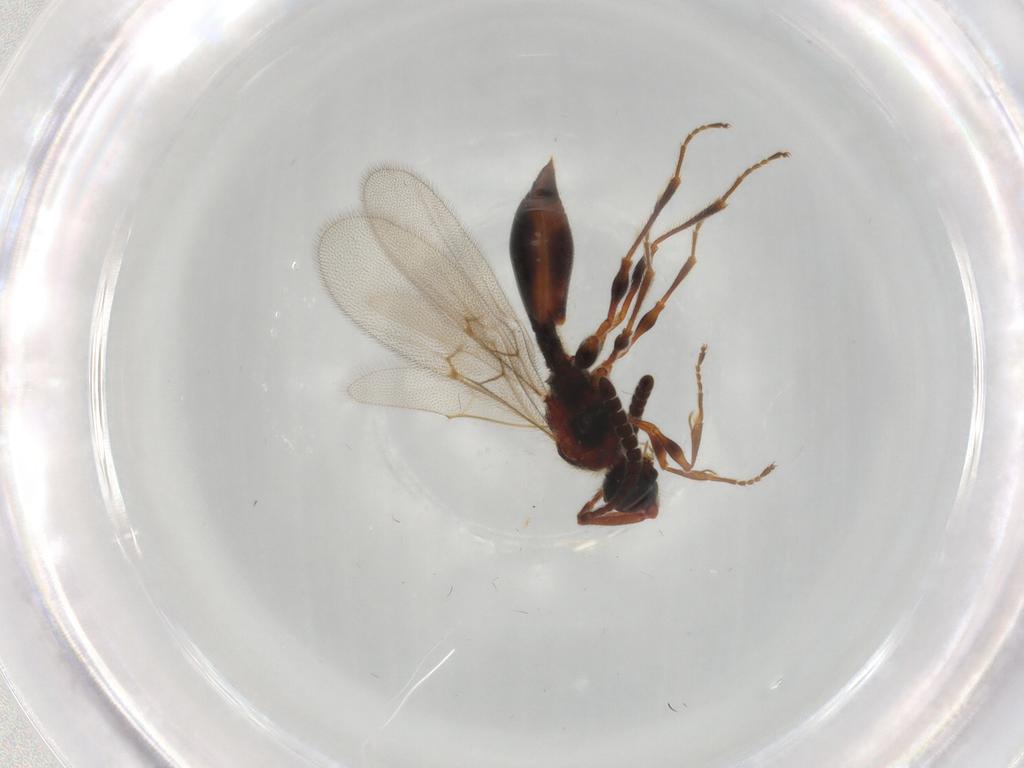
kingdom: Animalia
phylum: Arthropoda
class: Insecta
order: Hymenoptera
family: Diapriidae
